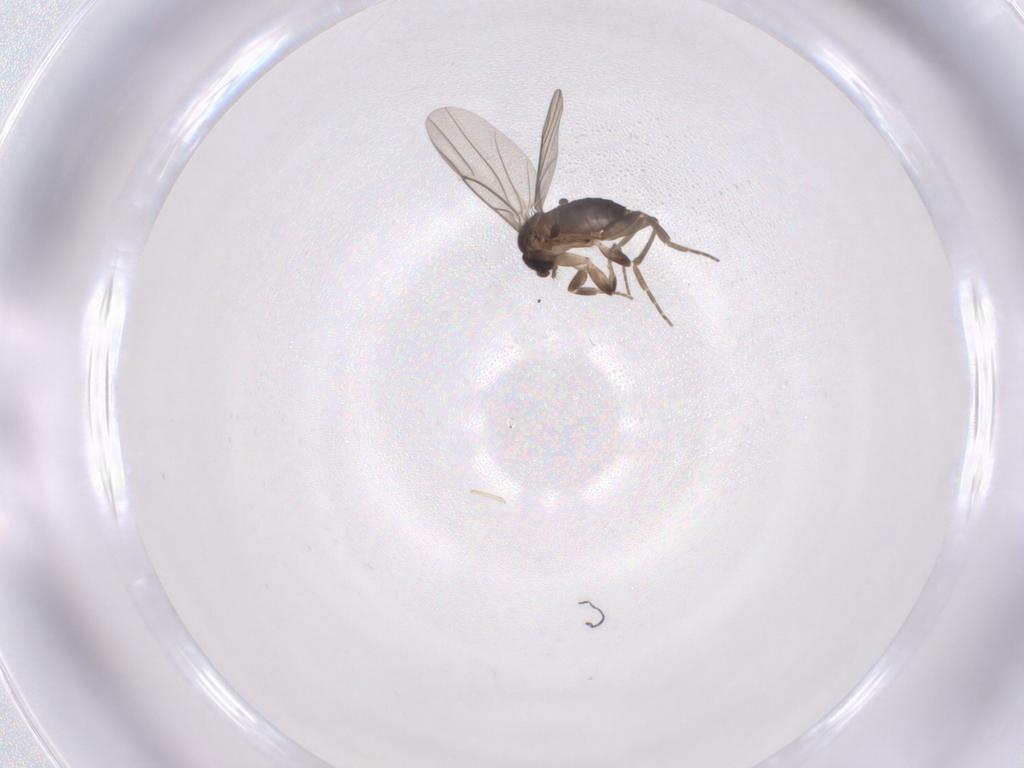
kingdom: Animalia
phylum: Arthropoda
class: Insecta
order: Diptera
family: Phoridae
